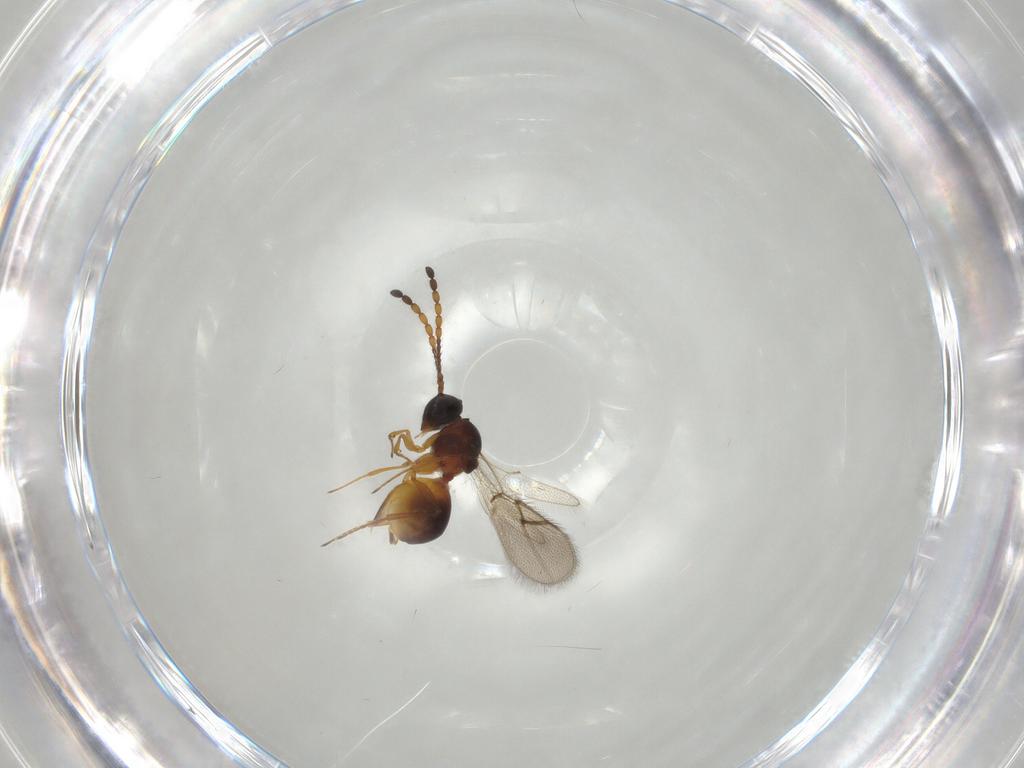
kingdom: Animalia
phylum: Arthropoda
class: Insecta
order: Hymenoptera
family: Figitidae
